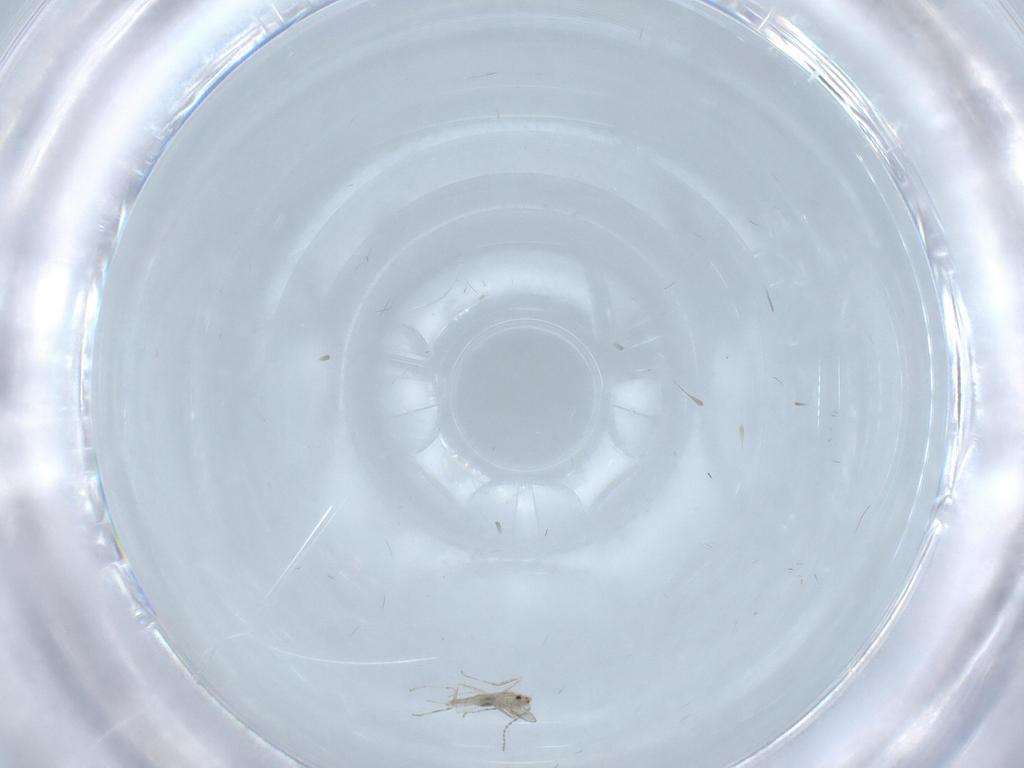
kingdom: Animalia
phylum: Arthropoda
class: Insecta
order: Diptera
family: Cecidomyiidae
